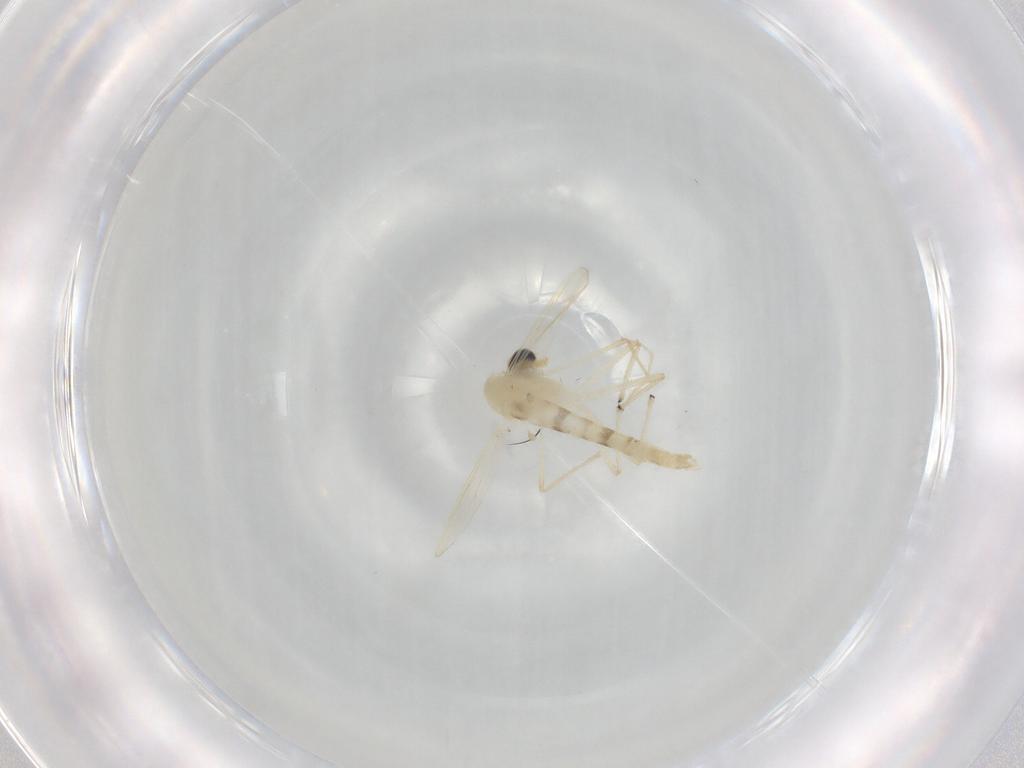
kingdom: Animalia
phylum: Arthropoda
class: Insecta
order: Diptera
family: Chironomidae
